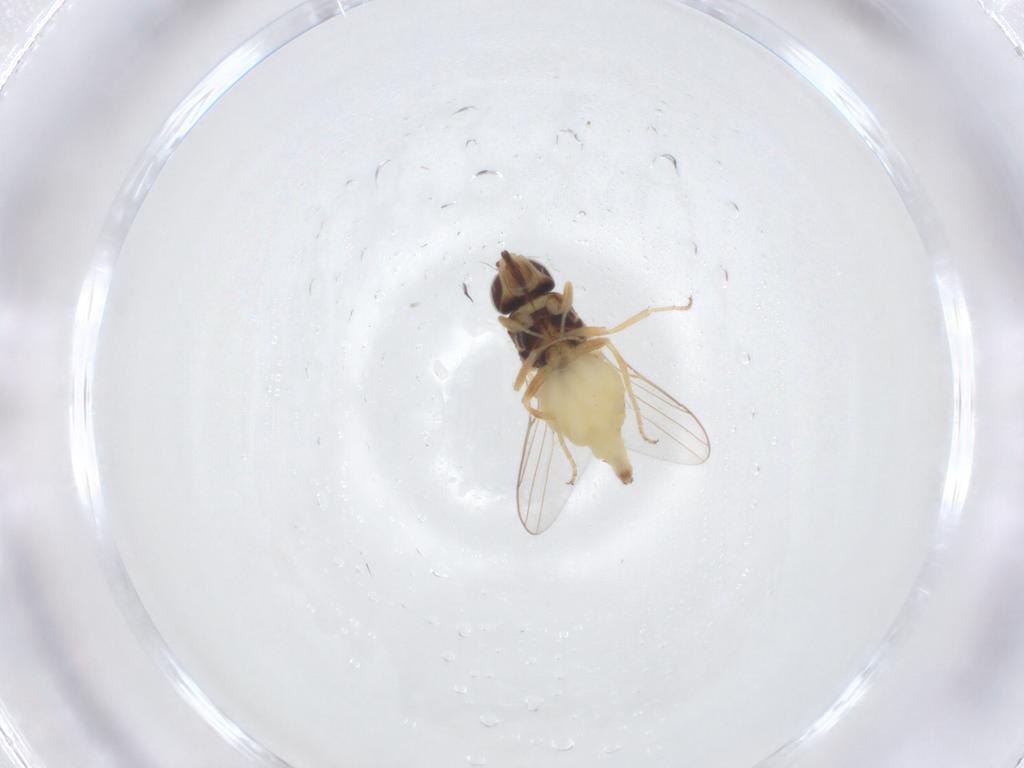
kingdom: Animalia
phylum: Arthropoda
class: Insecta
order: Diptera
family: Chloropidae
